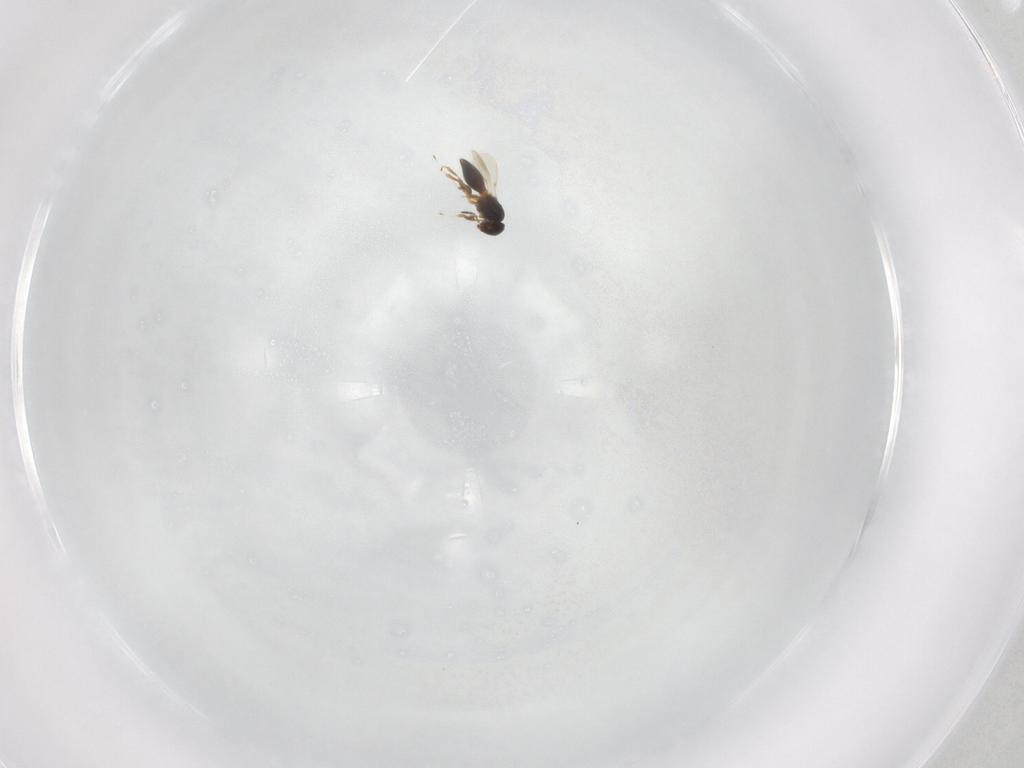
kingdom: Animalia
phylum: Arthropoda
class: Insecta
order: Hymenoptera
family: Platygastridae
